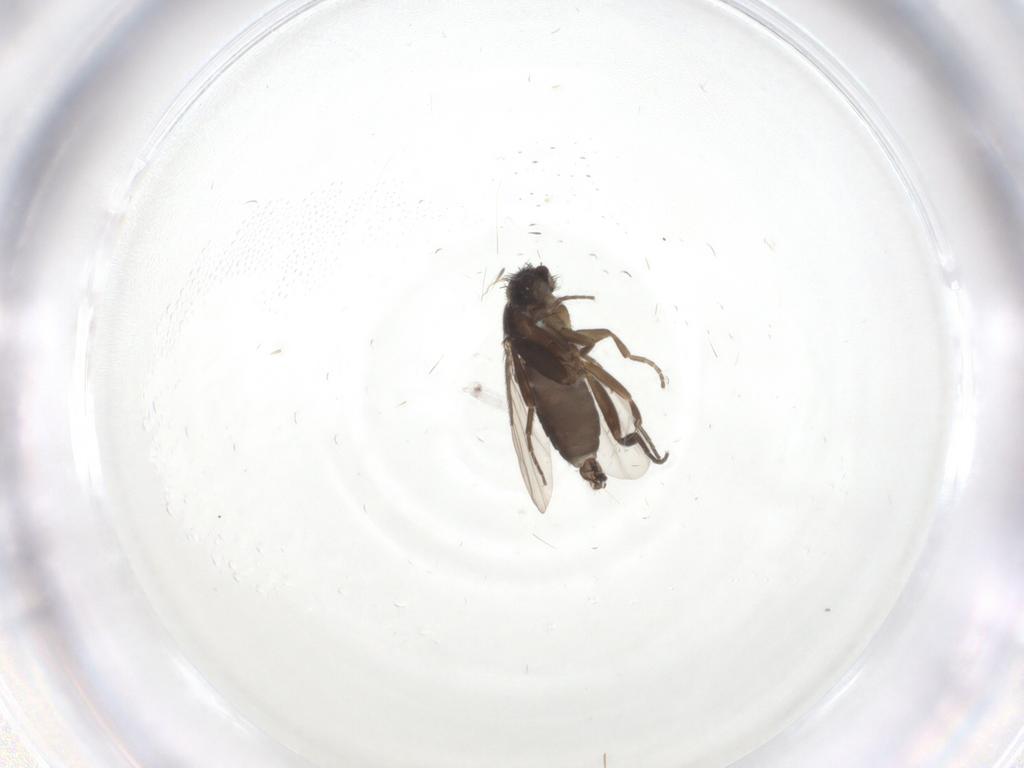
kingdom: Animalia
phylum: Arthropoda
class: Insecta
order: Diptera
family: Phoridae
